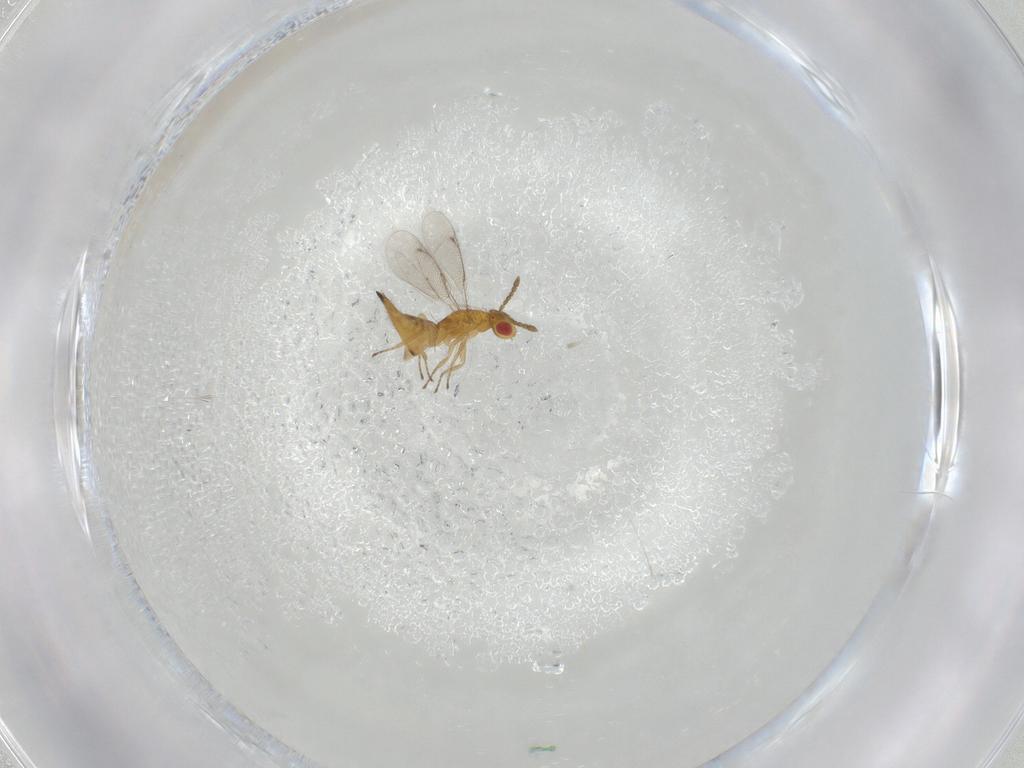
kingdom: Animalia
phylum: Arthropoda
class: Insecta
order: Hymenoptera
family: Eulophidae
